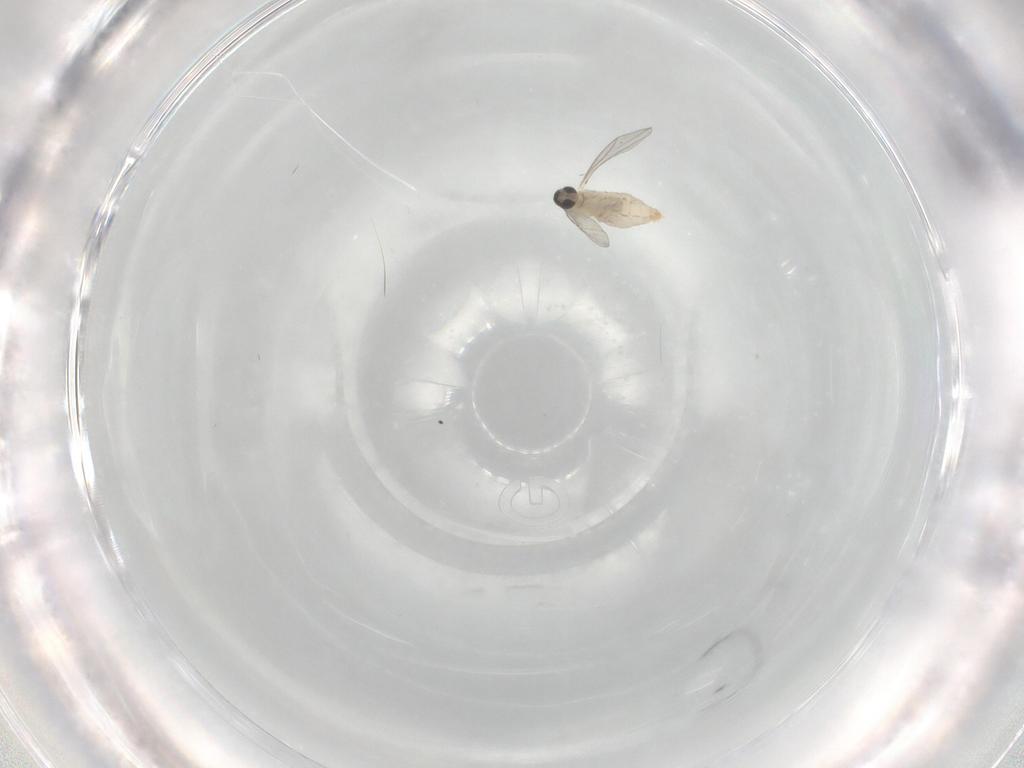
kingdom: Animalia
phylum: Arthropoda
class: Insecta
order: Diptera
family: Cecidomyiidae
